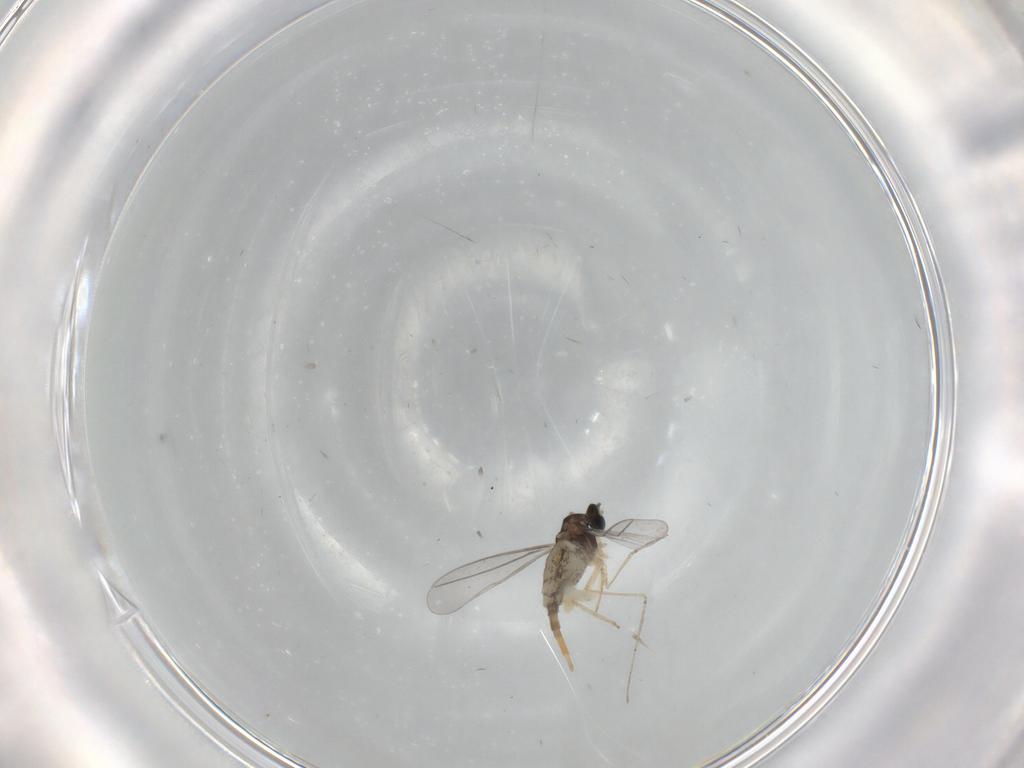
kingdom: Animalia
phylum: Arthropoda
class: Insecta
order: Diptera
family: Cecidomyiidae
